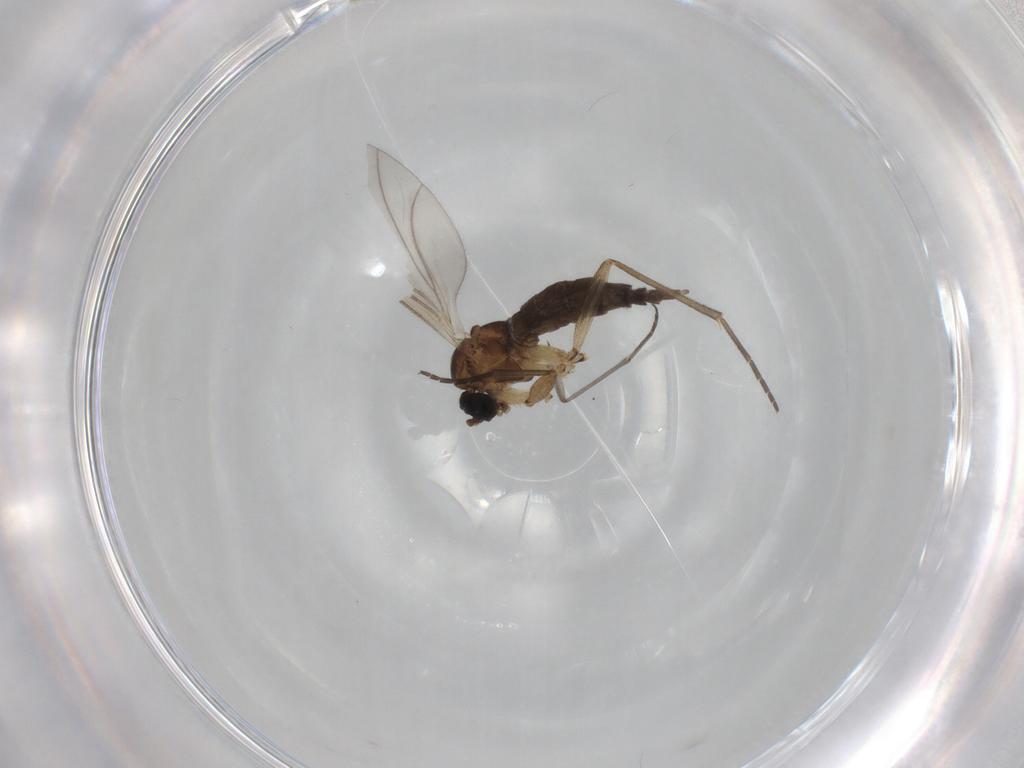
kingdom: Animalia
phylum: Arthropoda
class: Insecta
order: Diptera
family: Sciaridae
